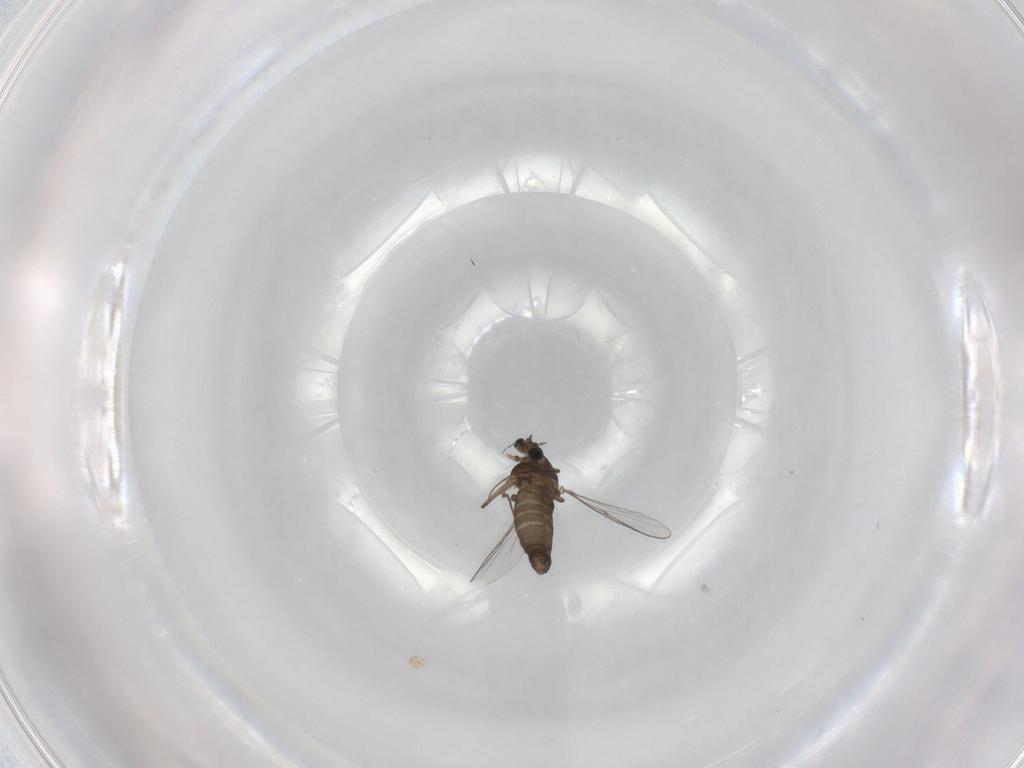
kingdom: Animalia
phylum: Arthropoda
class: Insecta
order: Diptera
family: Chironomidae
